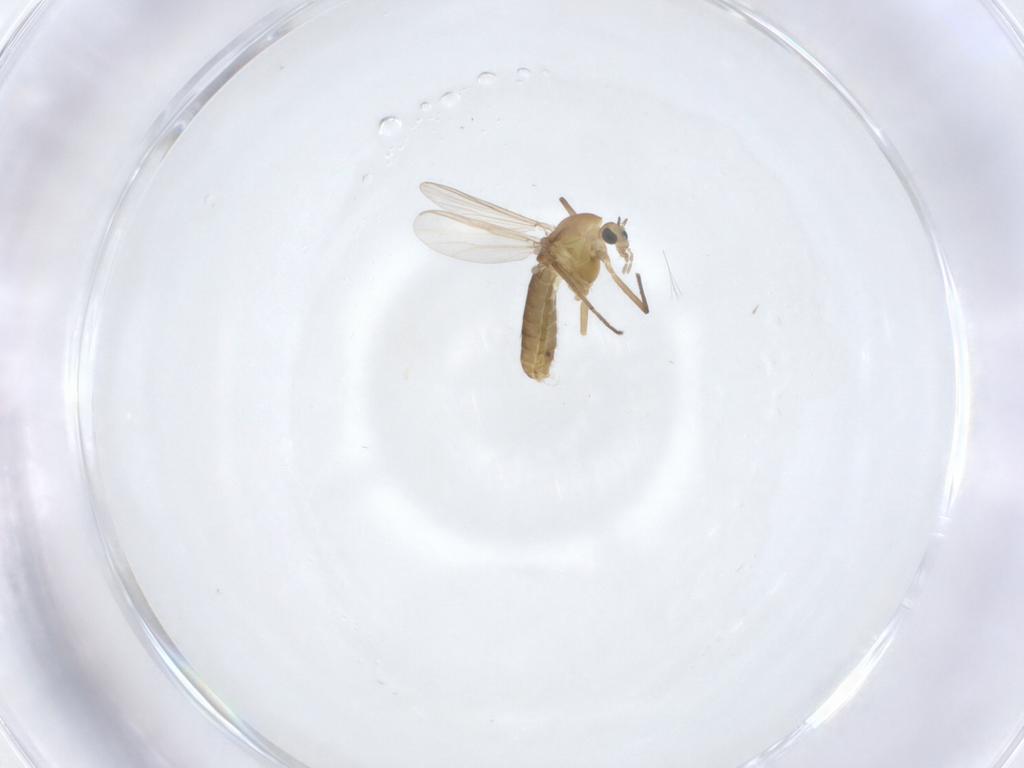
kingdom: Animalia
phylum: Arthropoda
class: Insecta
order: Diptera
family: Chironomidae
